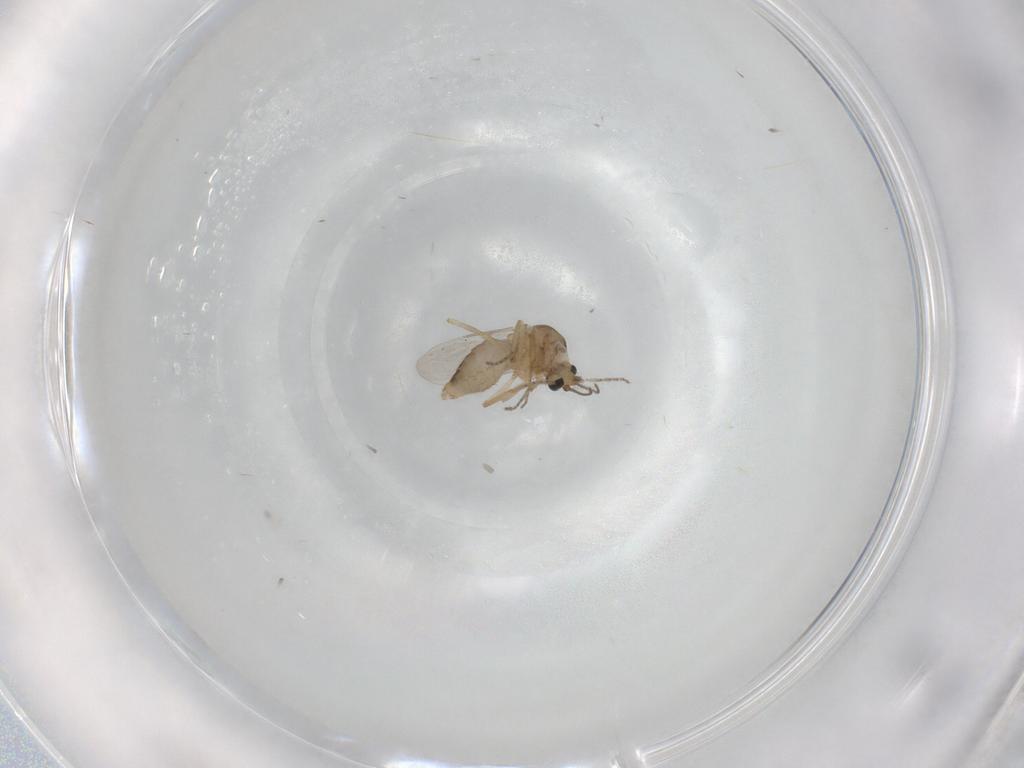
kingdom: Animalia
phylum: Arthropoda
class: Insecta
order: Diptera
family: Ceratopogonidae
